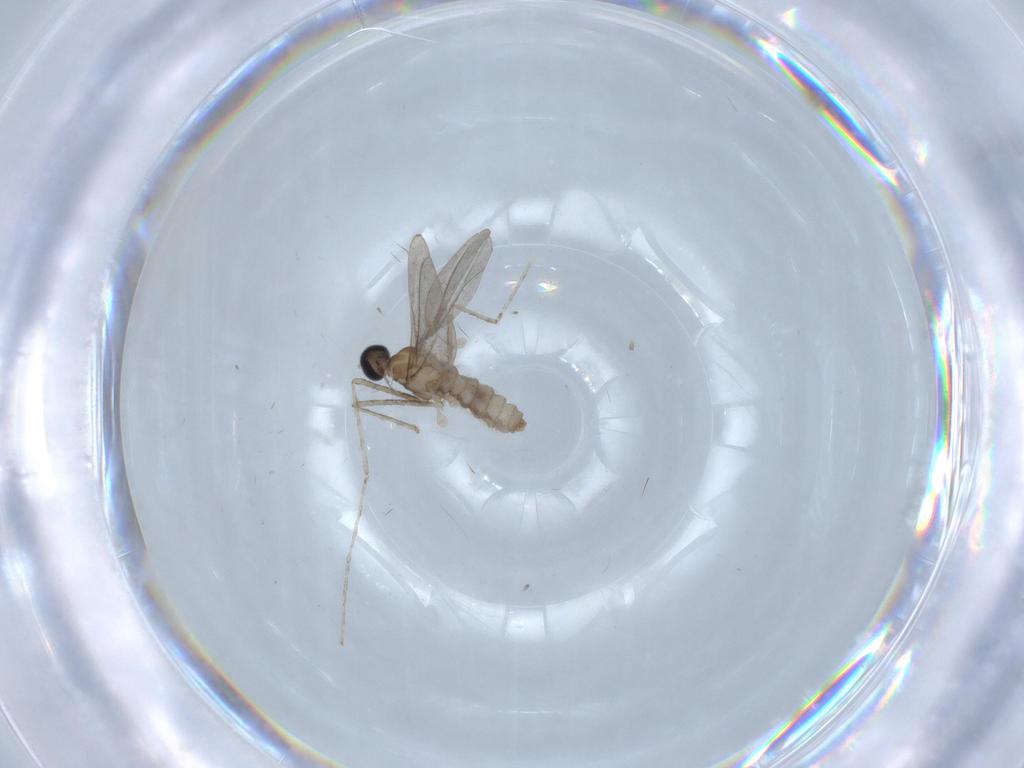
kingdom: Animalia
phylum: Arthropoda
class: Insecta
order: Diptera
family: Cecidomyiidae
